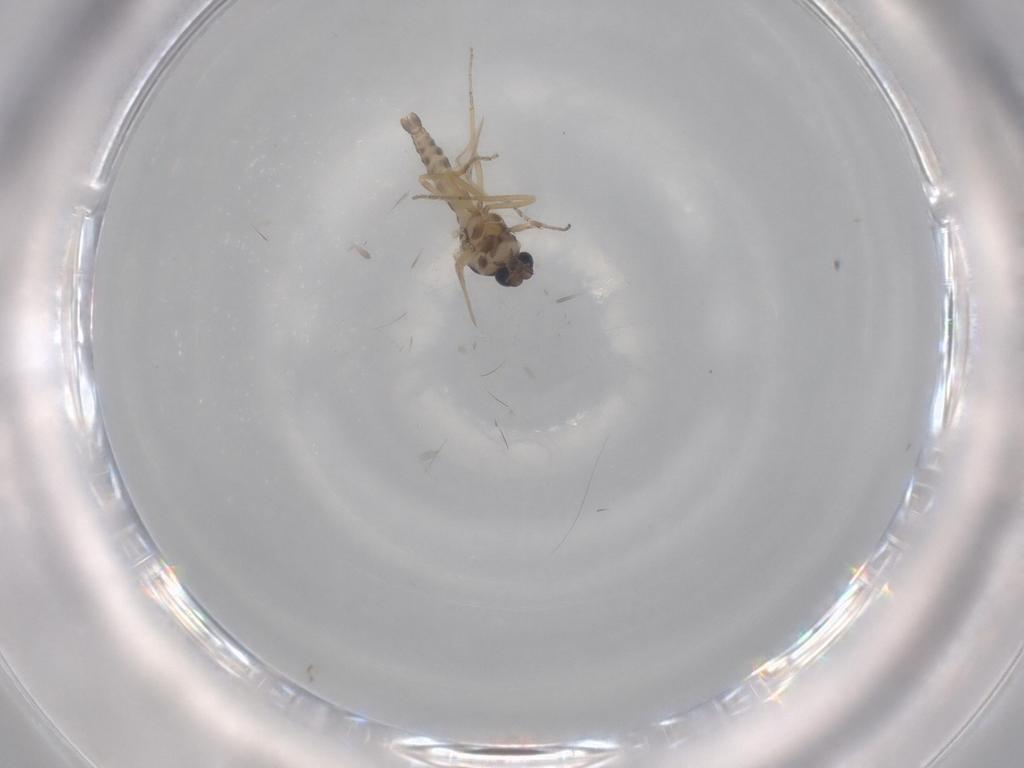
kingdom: Animalia
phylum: Arthropoda
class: Insecta
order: Diptera
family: Ceratopogonidae
